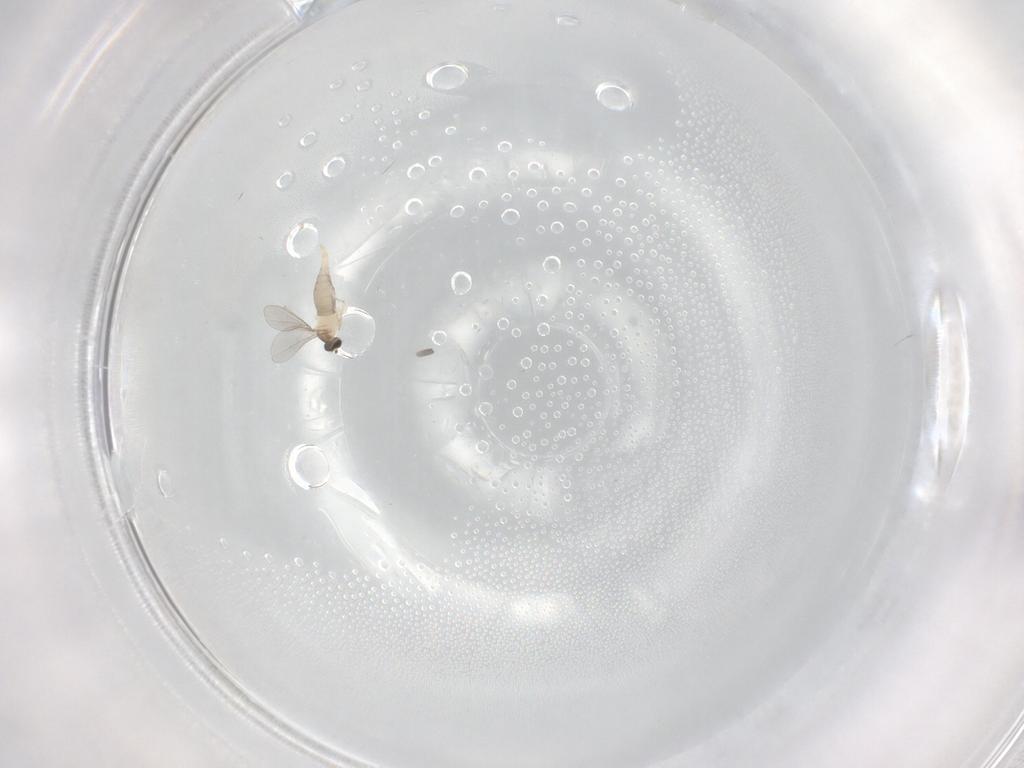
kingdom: Animalia
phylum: Arthropoda
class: Insecta
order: Diptera
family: Cecidomyiidae
